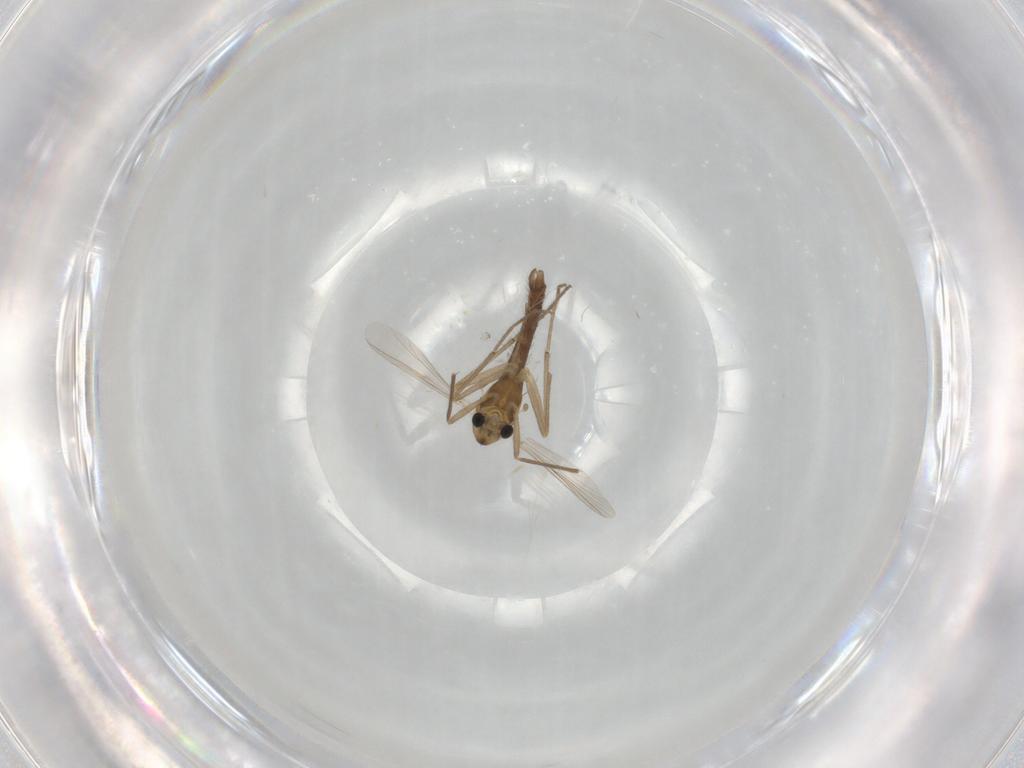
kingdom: Animalia
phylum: Arthropoda
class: Insecta
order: Diptera
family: Chironomidae
